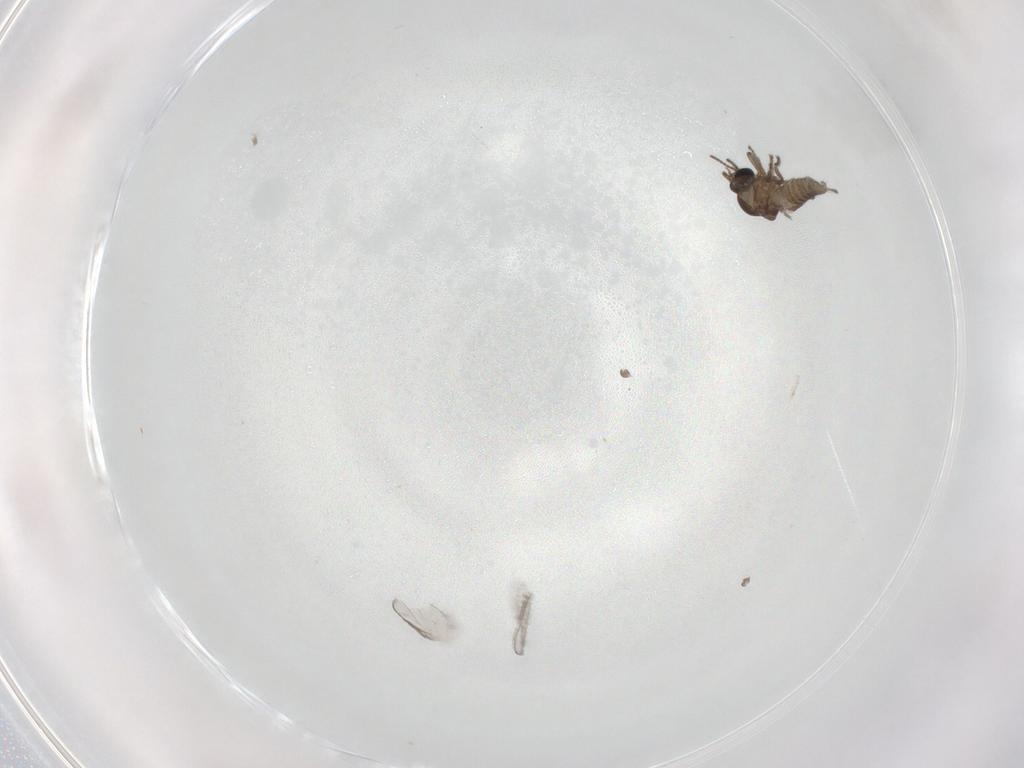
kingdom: Animalia
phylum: Arthropoda
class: Insecta
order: Diptera
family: Ceratopogonidae
